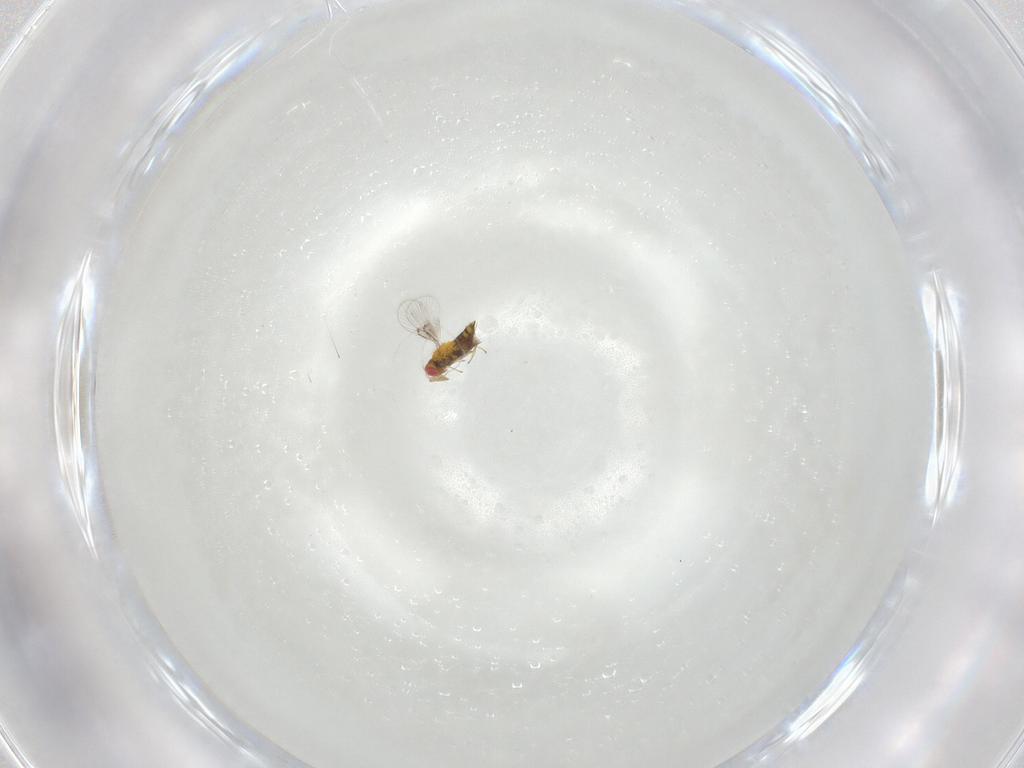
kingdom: Animalia
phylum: Arthropoda
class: Insecta
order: Hymenoptera
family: Trichogrammatidae
